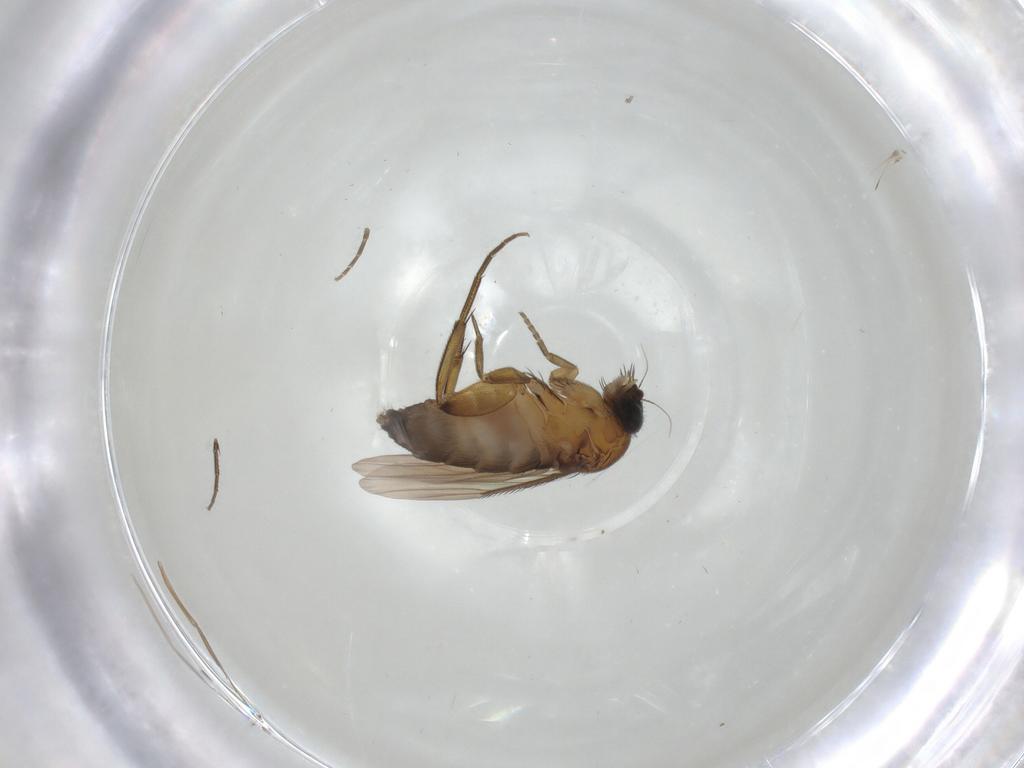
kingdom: Animalia
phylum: Arthropoda
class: Insecta
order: Diptera
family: Phoridae
